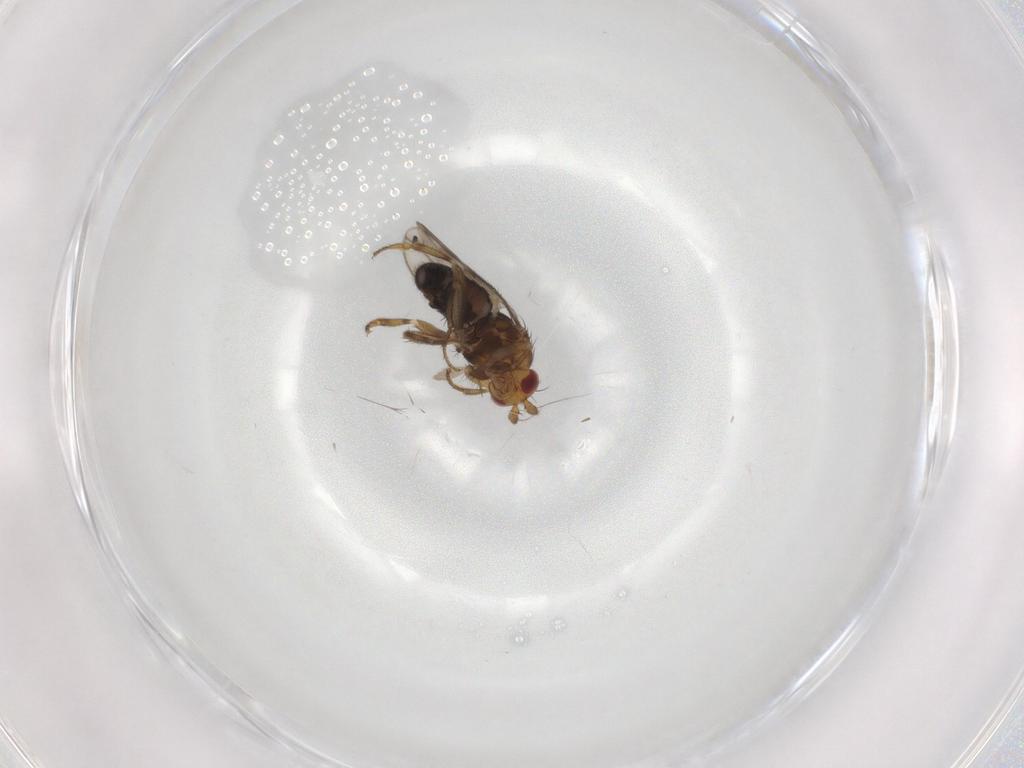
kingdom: Animalia
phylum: Arthropoda
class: Insecta
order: Diptera
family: Sphaeroceridae
